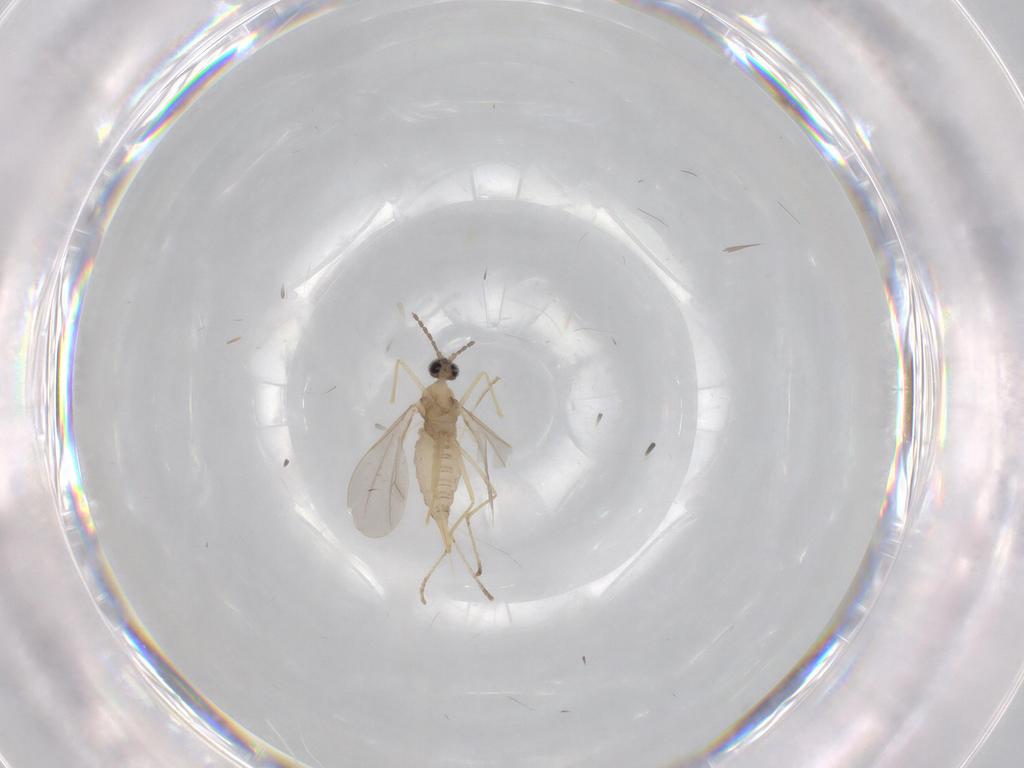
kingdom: Animalia
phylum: Arthropoda
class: Insecta
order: Diptera
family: Cecidomyiidae
